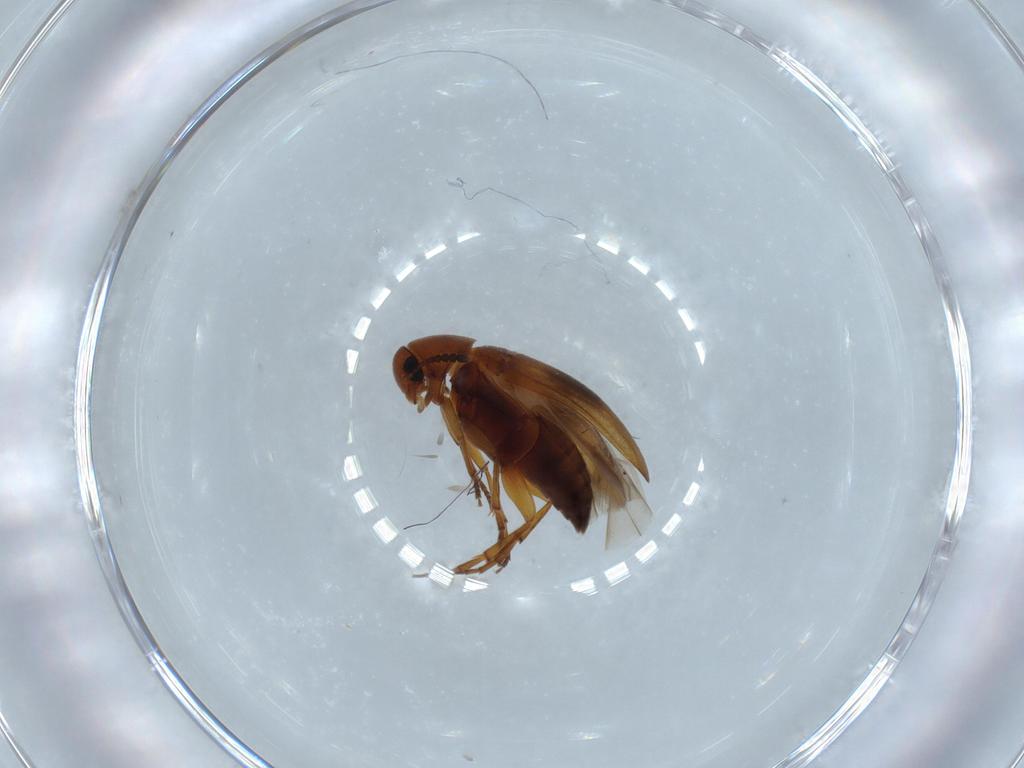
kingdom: Animalia
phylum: Arthropoda
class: Insecta
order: Coleoptera
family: Scraptiidae
